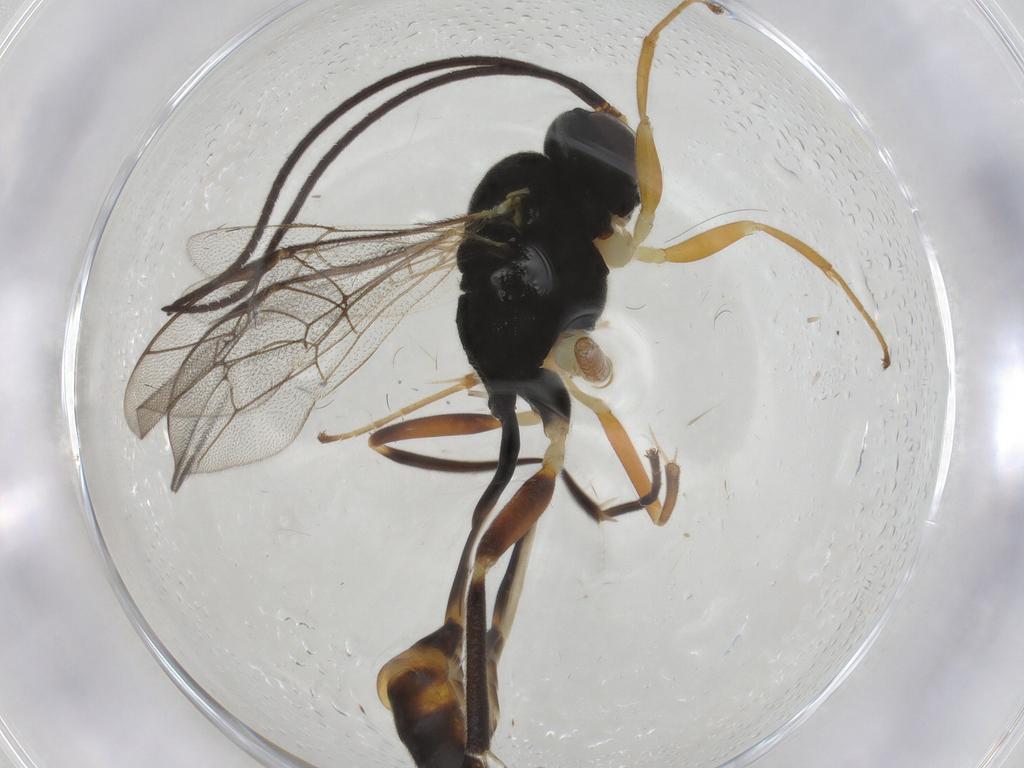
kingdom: Animalia
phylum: Arthropoda
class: Insecta
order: Hymenoptera
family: Ichneumonidae
